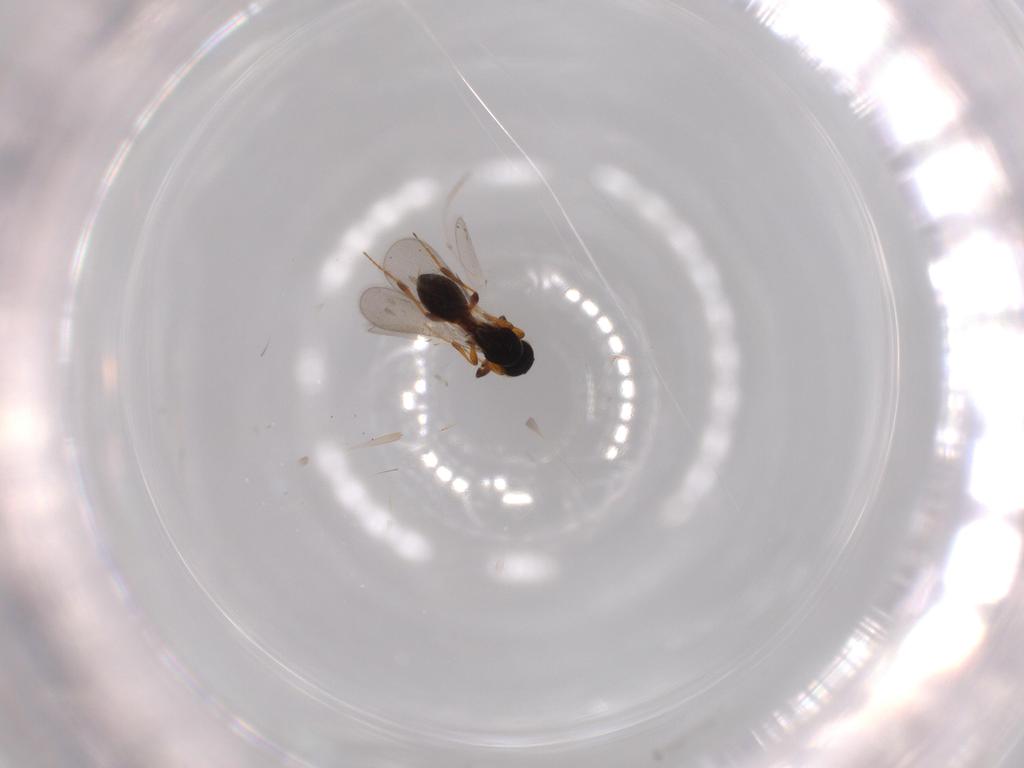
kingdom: Animalia
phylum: Arthropoda
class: Insecta
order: Hymenoptera
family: Platygastridae
